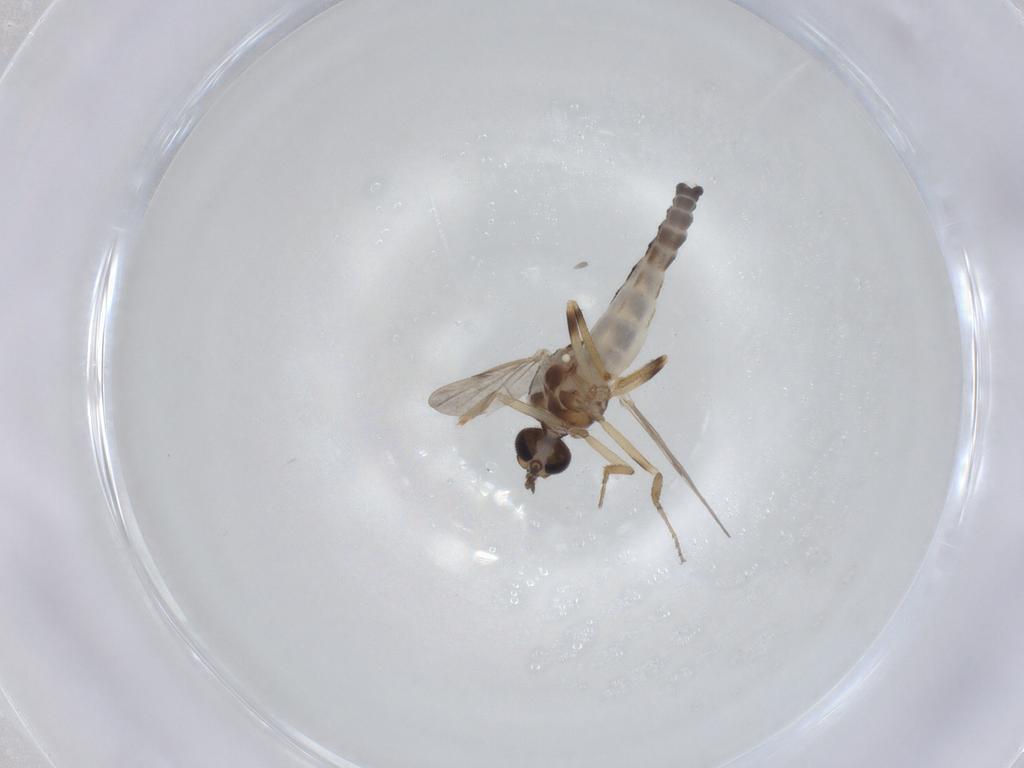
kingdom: Animalia
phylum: Arthropoda
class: Insecta
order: Diptera
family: Ceratopogonidae
